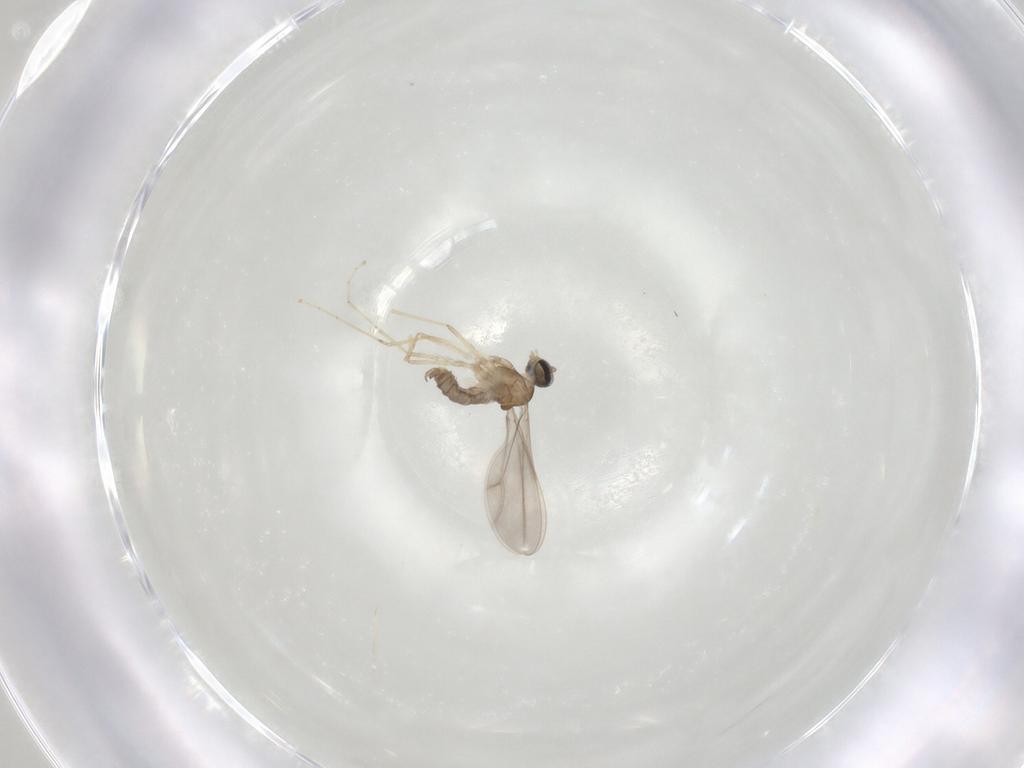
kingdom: Animalia
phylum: Arthropoda
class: Insecta
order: Diptera
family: Cecidomyiidae
